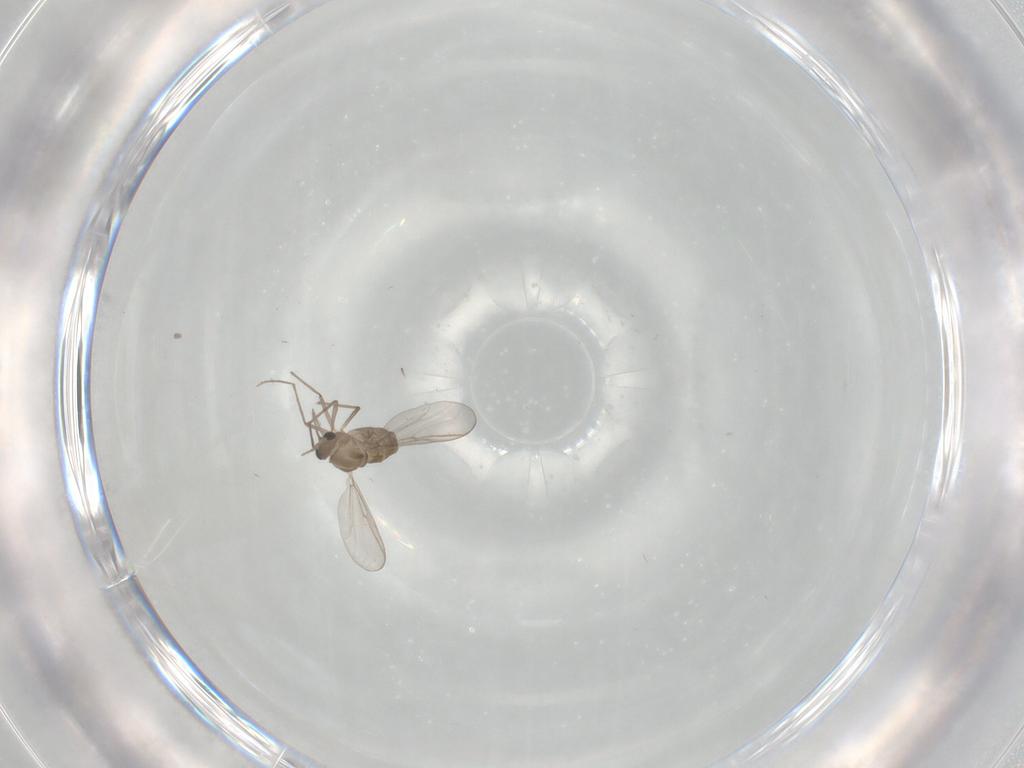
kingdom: Animalia
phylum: Arthropoda
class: Insecta
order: Diptera
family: Chironomidae
